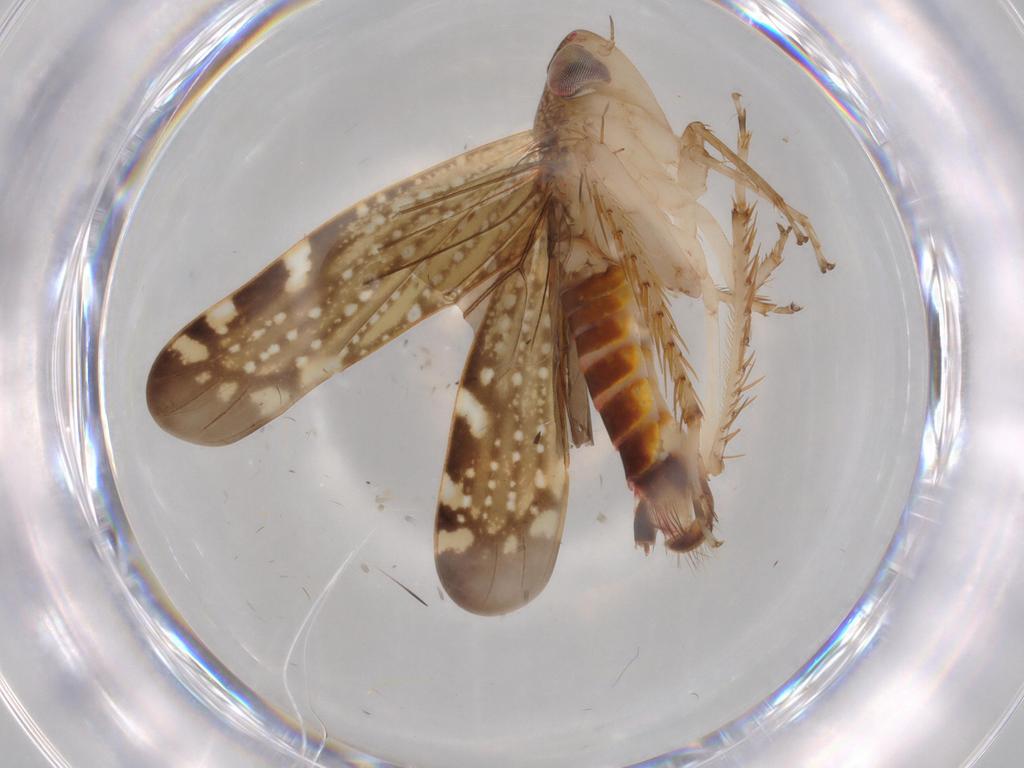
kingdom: Animalia
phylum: Arthropoda
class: Insecta
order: Hemiptera
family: Cicadellidae
